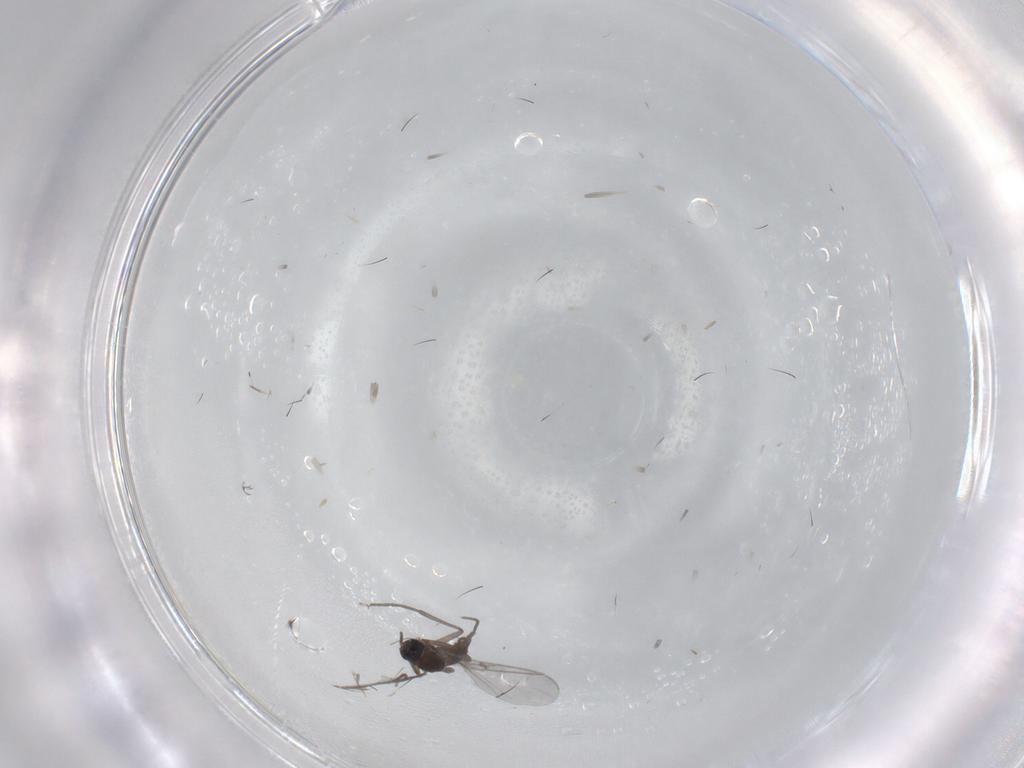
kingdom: Animalia
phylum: Arthropoda
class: Insecta
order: Diptera
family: Sciaridae
